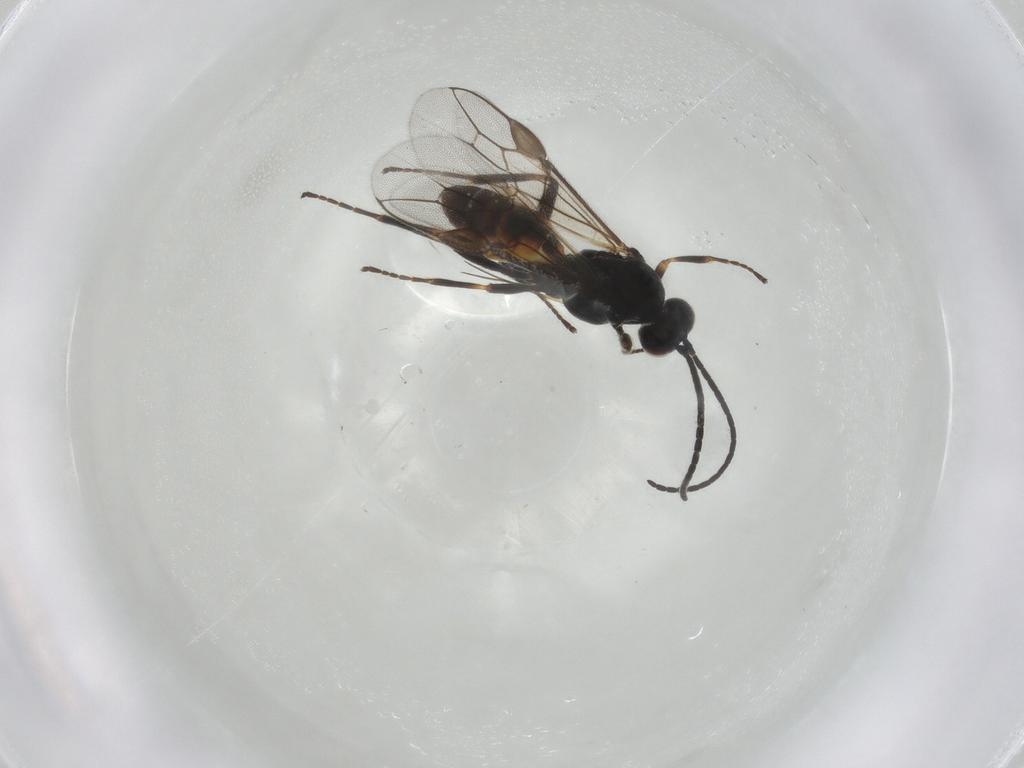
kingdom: Animalia
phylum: Arthropoda
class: Insecta
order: Hymenoptera
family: Braconidae
